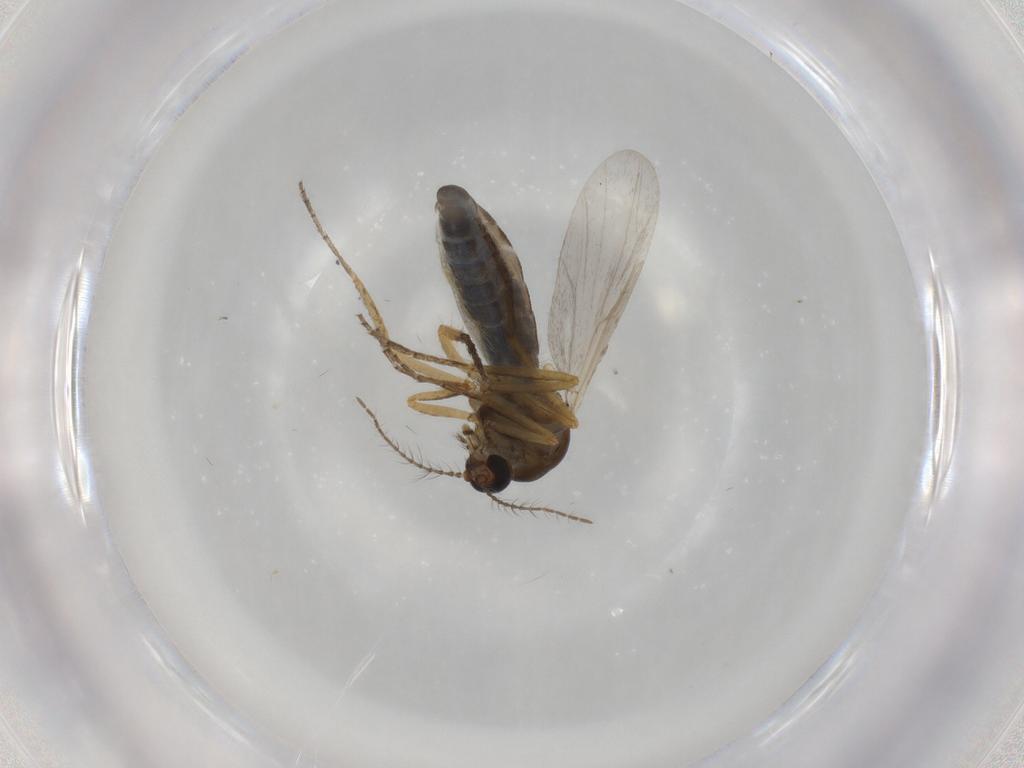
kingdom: Animalia
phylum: Arthropoda
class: Insecta
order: Diptera
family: Ceratopogonidae
